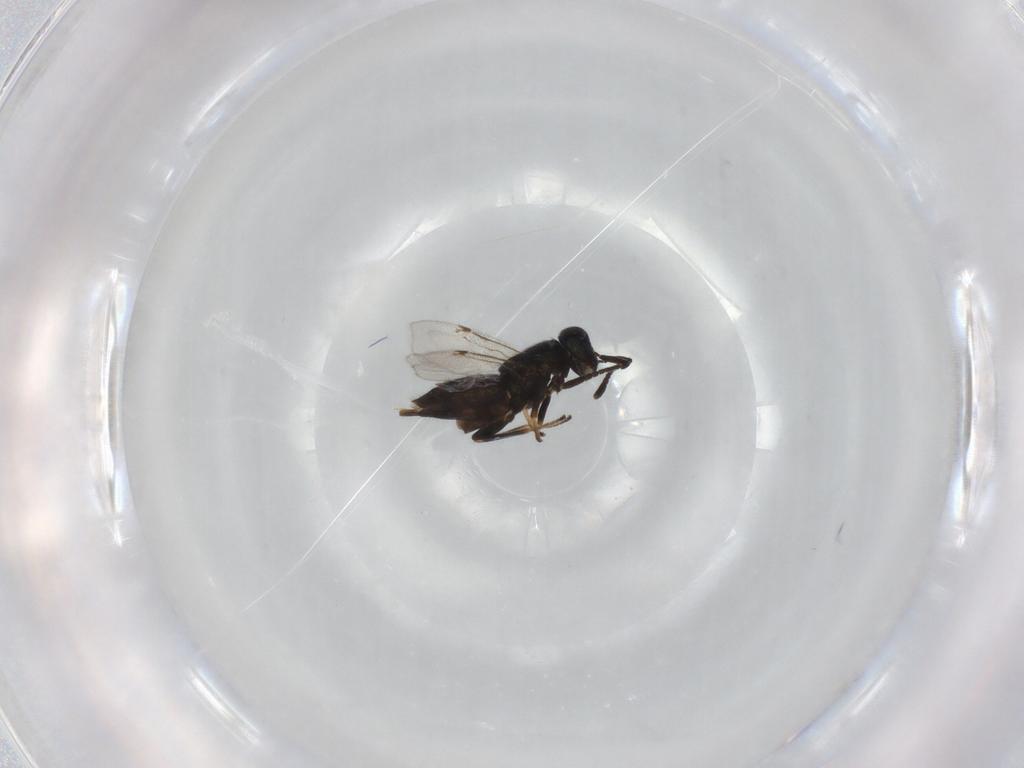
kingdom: Animalia
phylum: Arthropoda
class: Insecta
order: Hymenoptera
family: Encyrtidae
